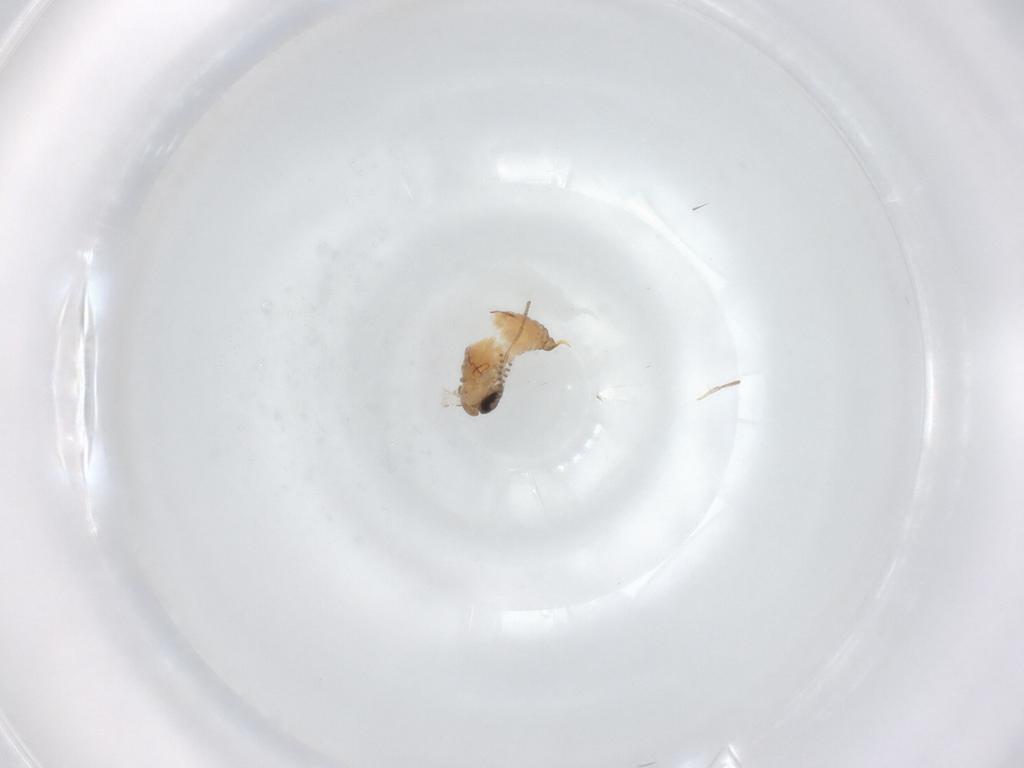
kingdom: Animalia
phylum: Arthropoda
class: Insecta
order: Diptera
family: Psychodidae
